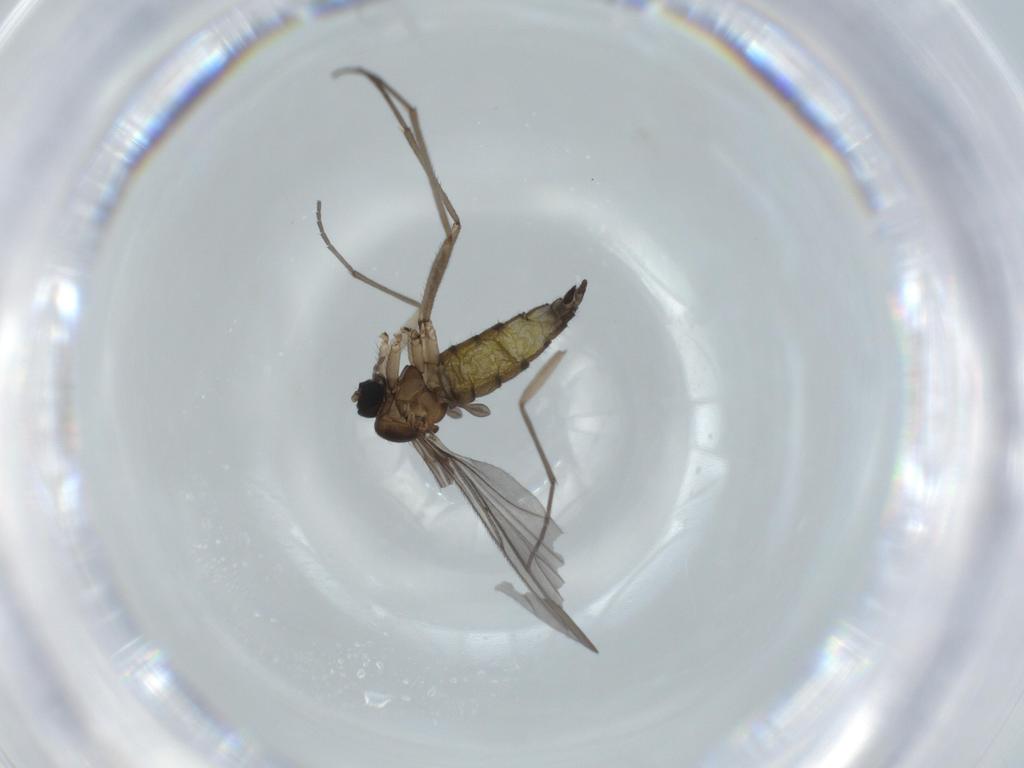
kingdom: Animalia
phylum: Arthropoda
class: Insecta
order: Diptera
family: Sciaridae
